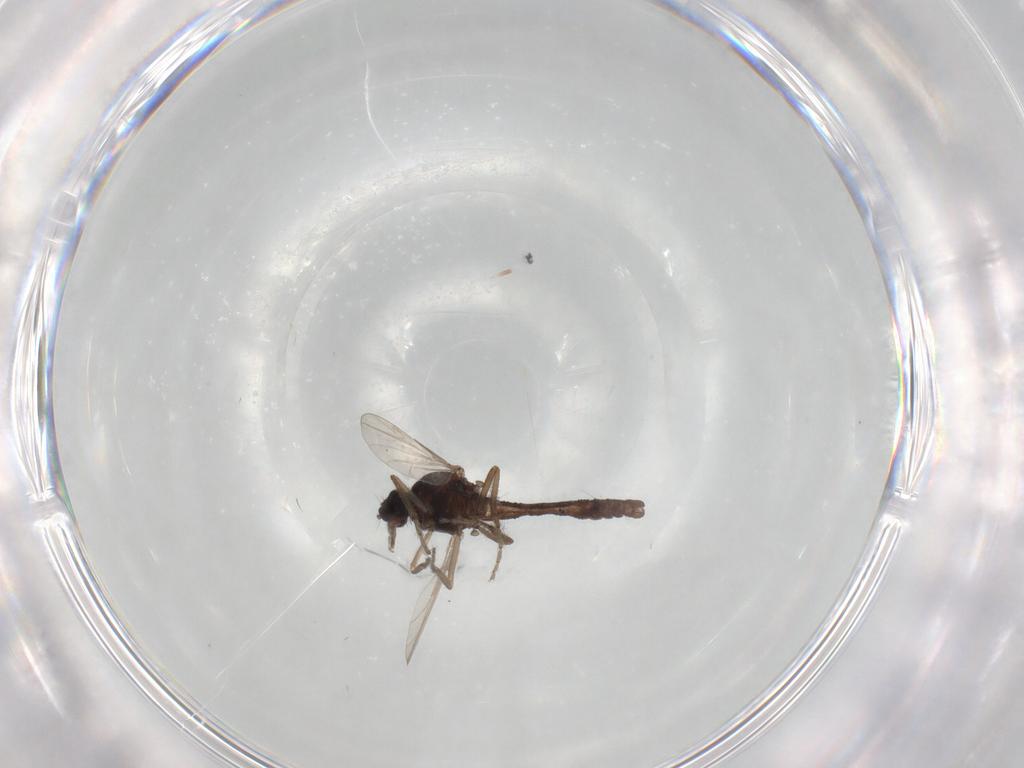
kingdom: Animalia
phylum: Arthropoda
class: Insecta
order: Diptera
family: Ceratopogonidae
